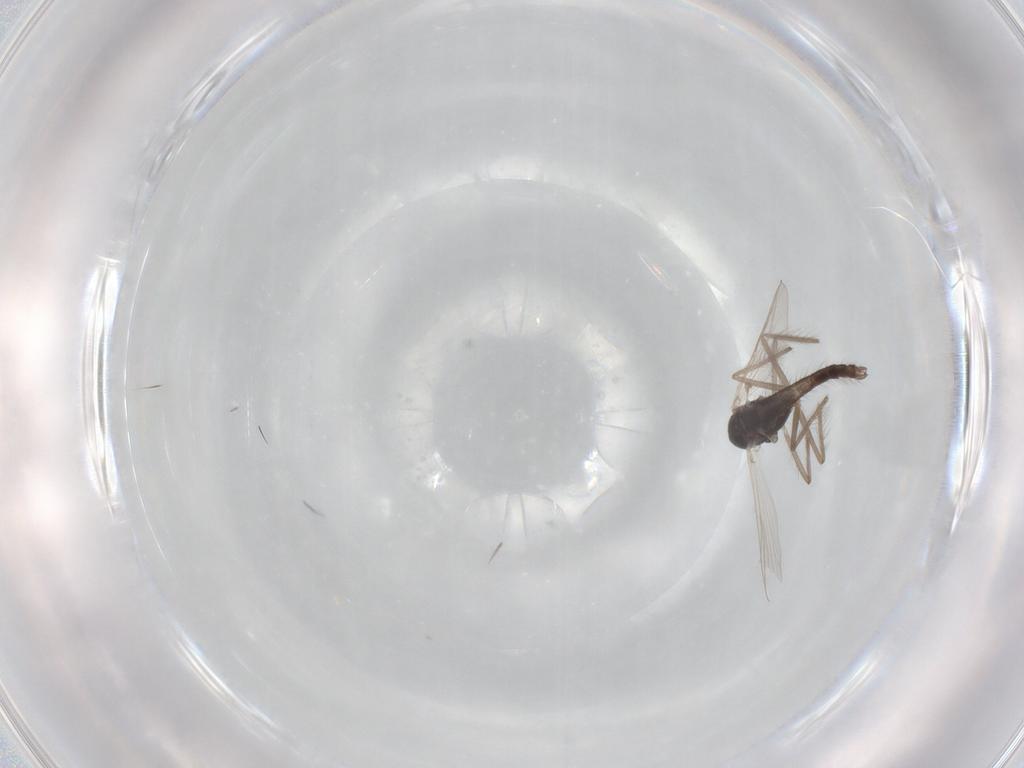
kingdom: Animalia
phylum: Arthropoda
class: Insecta
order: Diptera
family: Chironomidae
